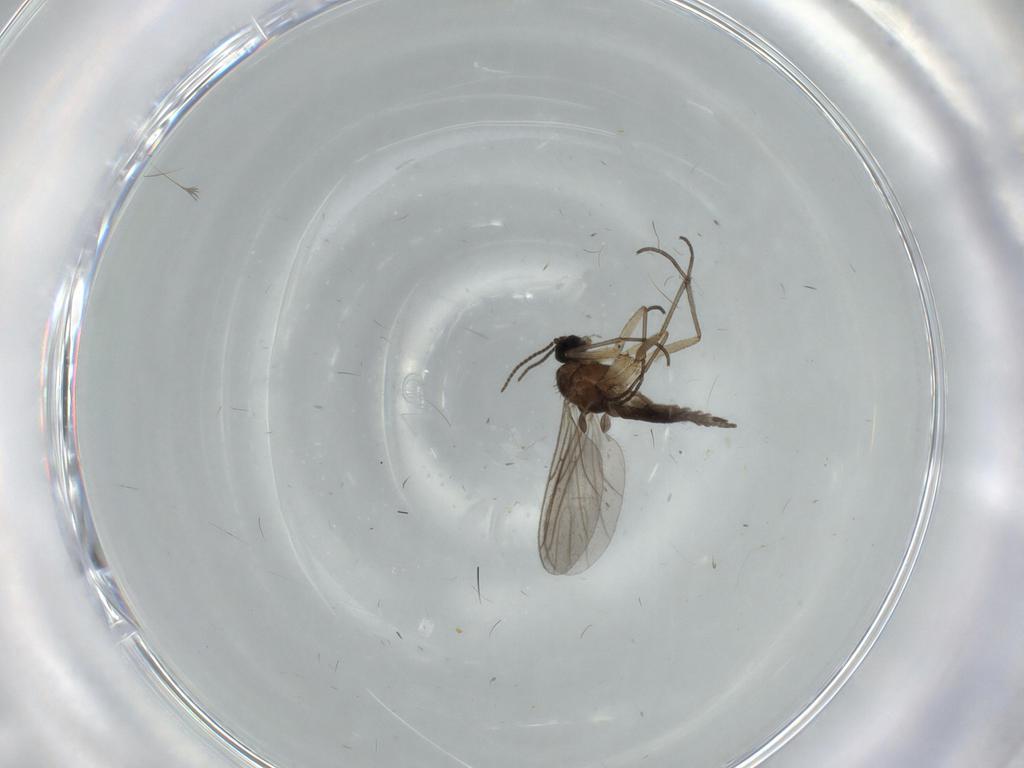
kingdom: Animalia
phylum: Arthropoda
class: Insecta
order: Diptera
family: Sciaridae
